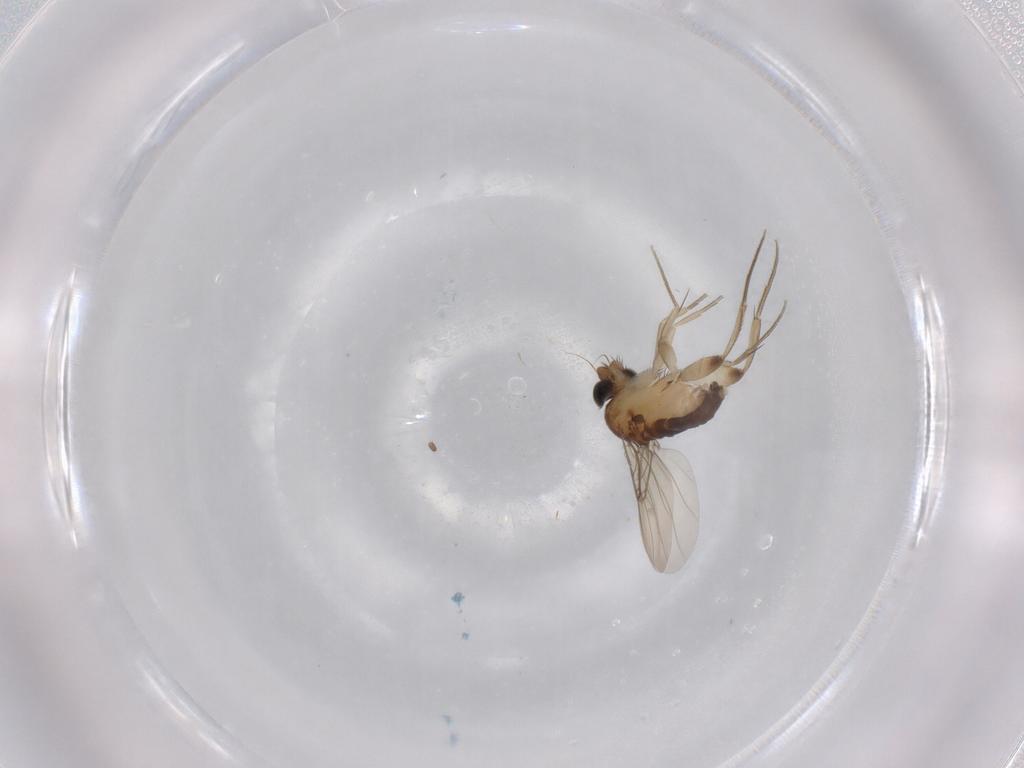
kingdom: Animalia
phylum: Arthropoda
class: Insecta
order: Diptera
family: Phoridae
